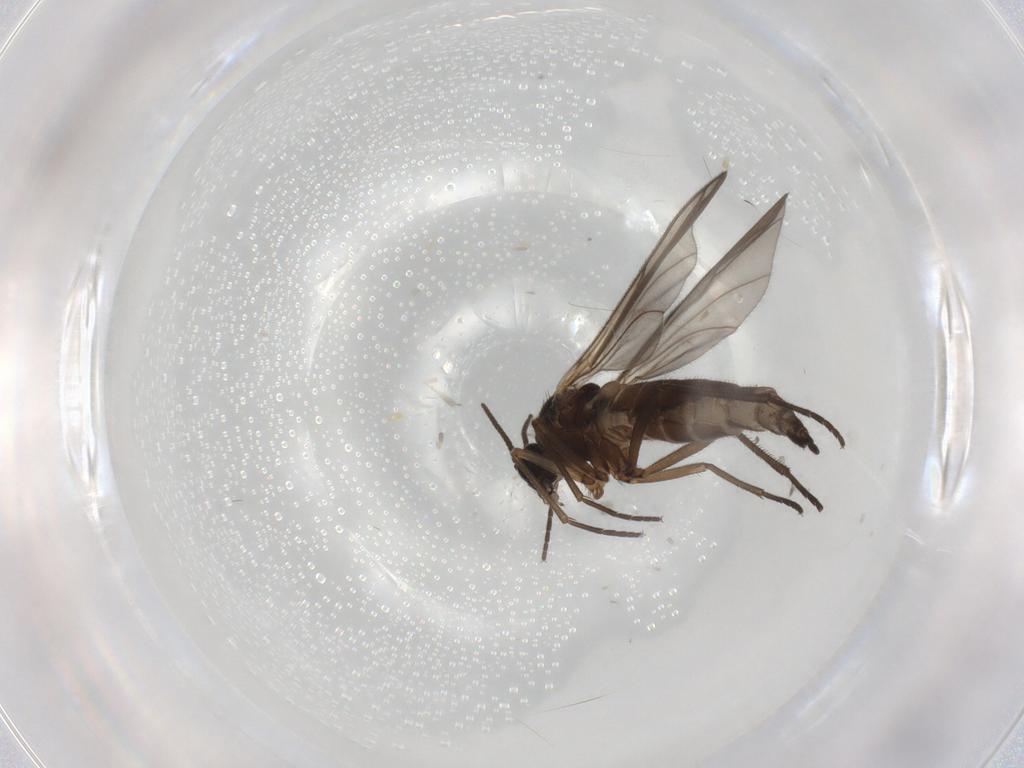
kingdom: Animalia
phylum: Arthropoda
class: Insecta
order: Diptera
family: Sciaridae
